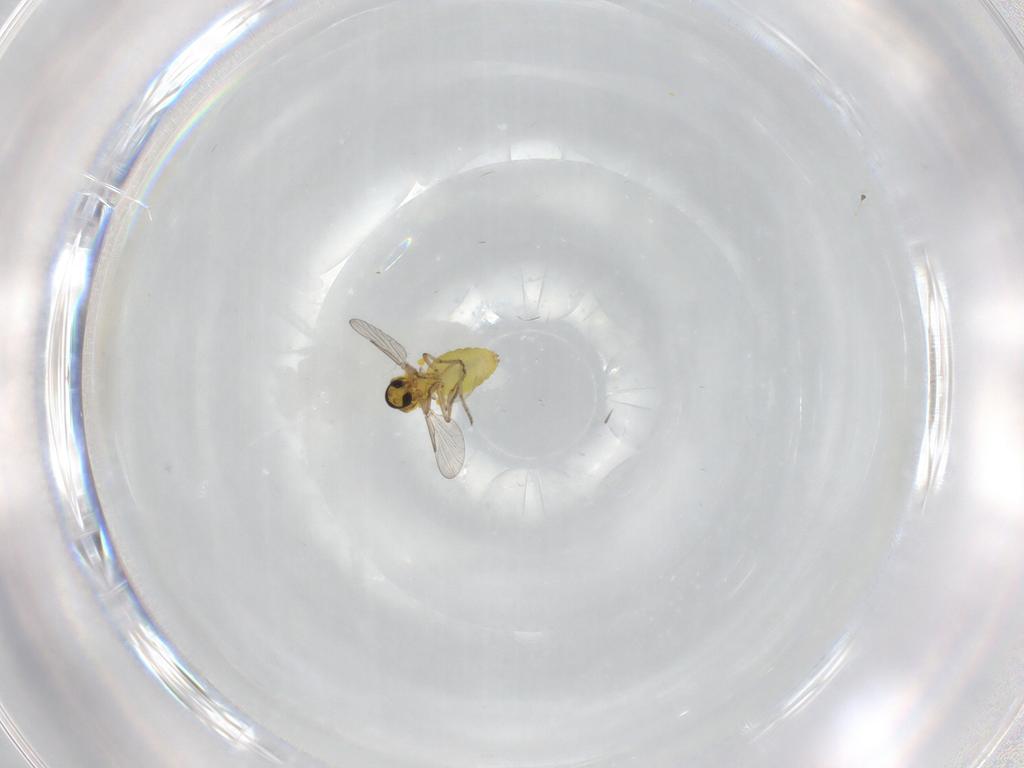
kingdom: Animalia
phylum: Arthropoda
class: Insecta
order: Diptera
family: Ceratopogonidae
